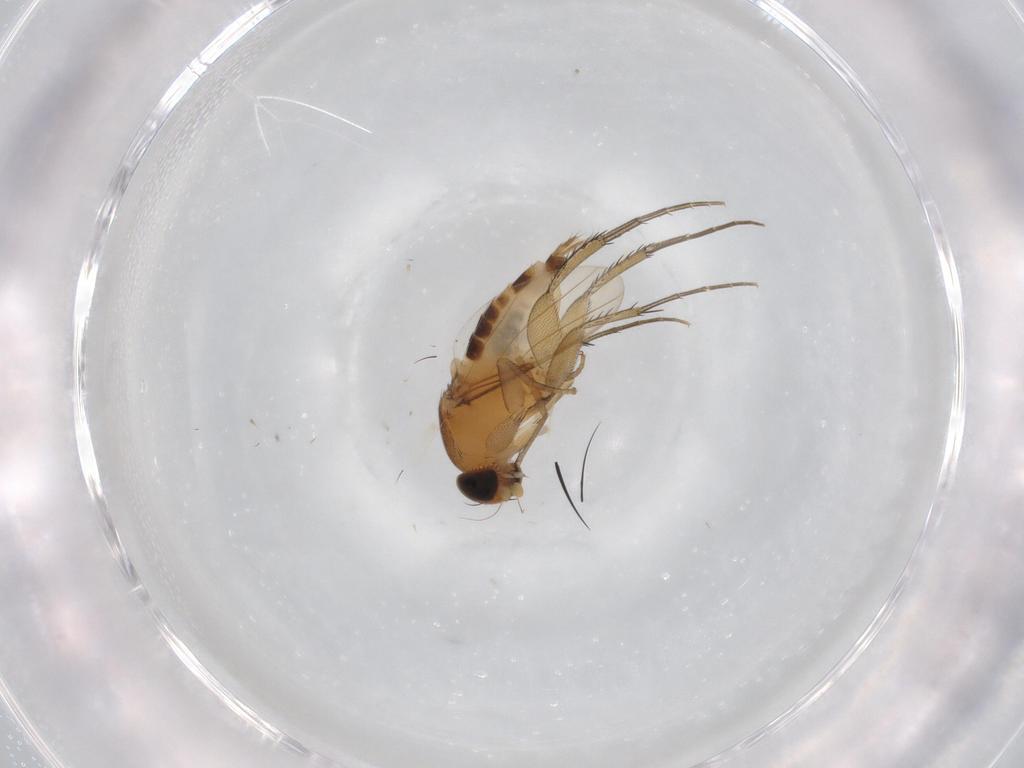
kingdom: Animalia
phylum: Arthropoda
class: Insecta
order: Diptera
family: Phoridae
